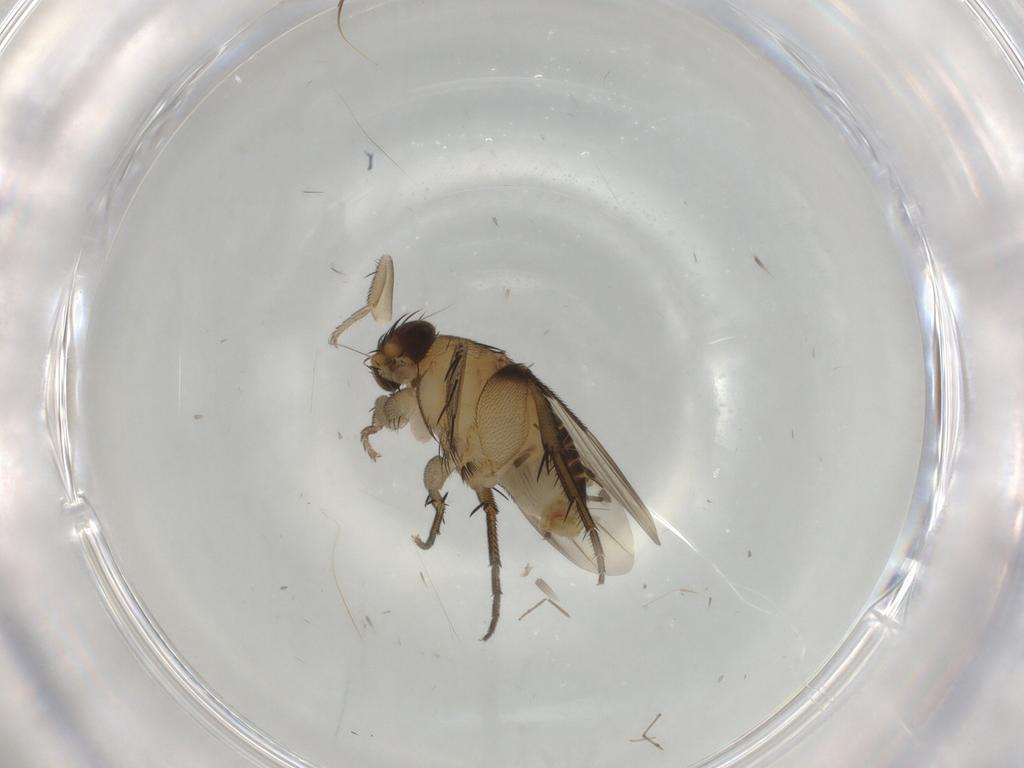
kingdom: Animalia
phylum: Arthropoda
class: Insecta
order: Diptera
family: Phoridae
